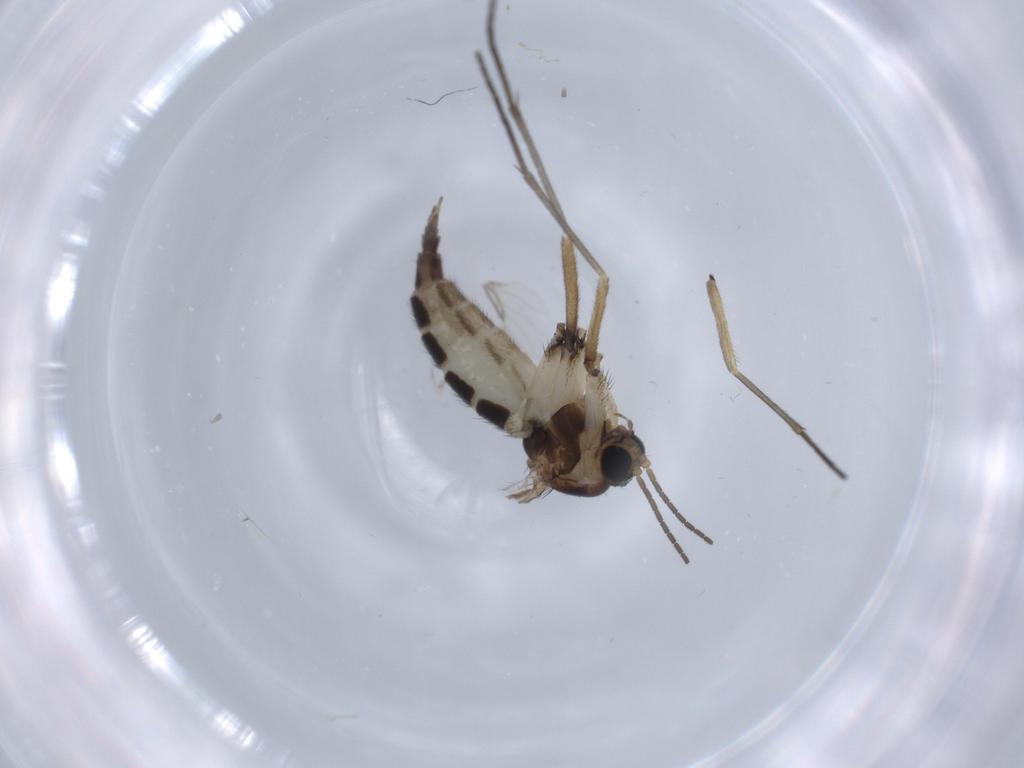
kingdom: Animalia
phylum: Arthropoda
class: Insecta
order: Diptera
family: Sciaridae
